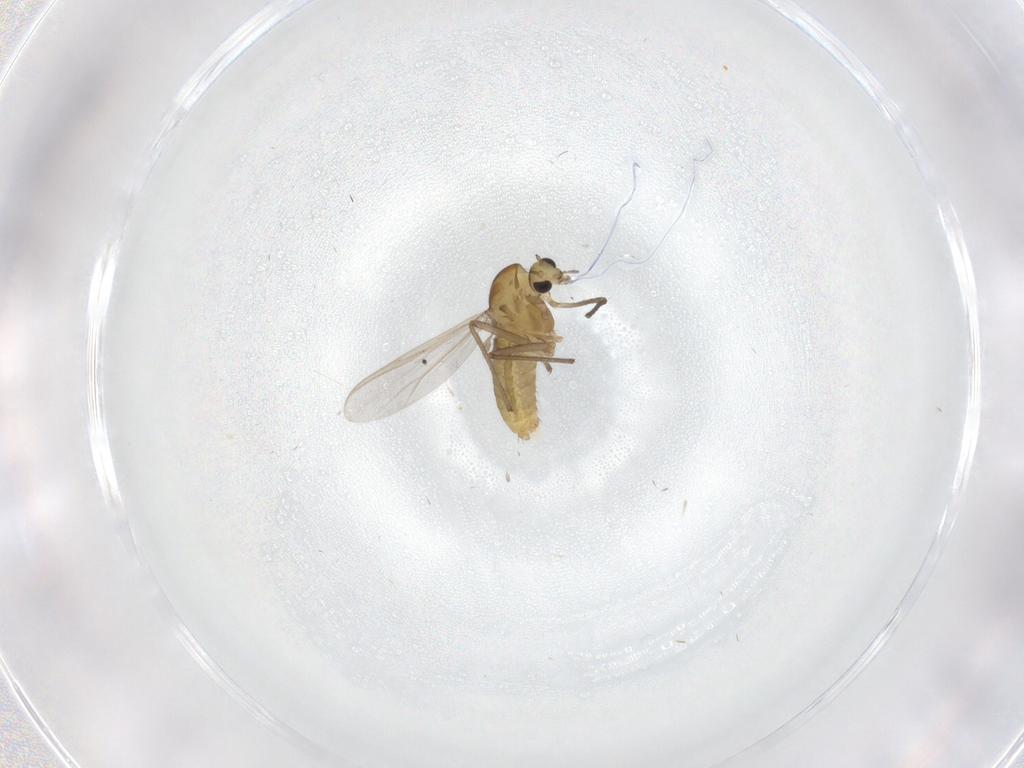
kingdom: Animalia
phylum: Arthropoda
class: Insecta
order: Diptera
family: Chironomidae
